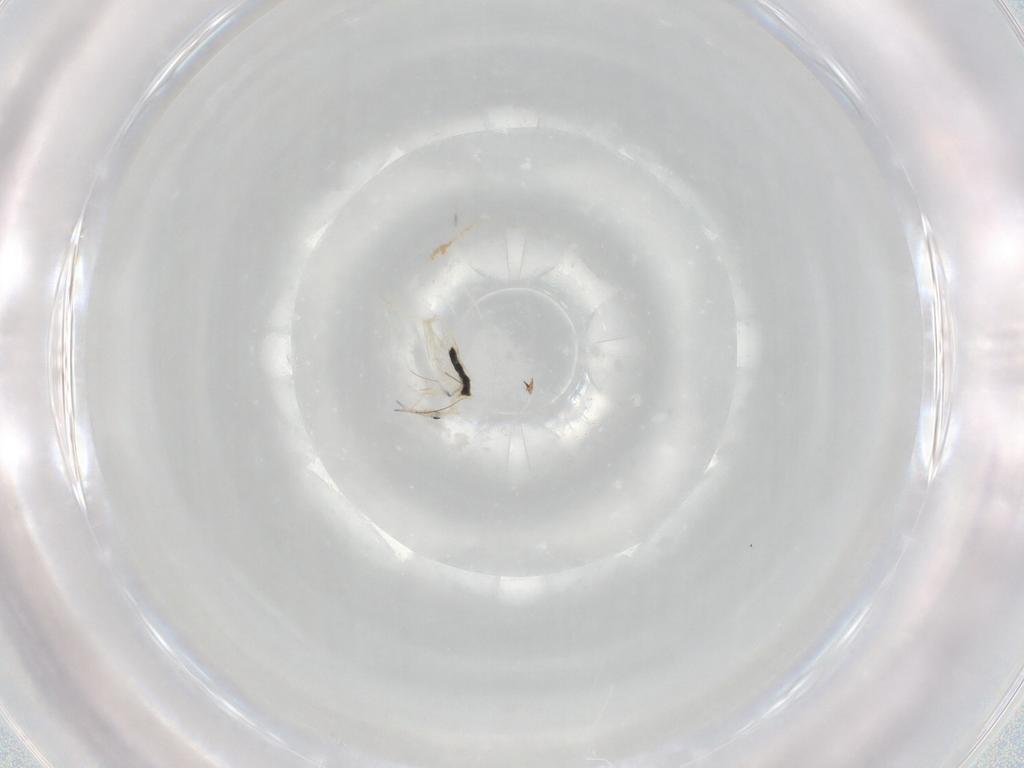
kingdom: Animalia
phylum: Arthropoda
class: Collembola
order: Entomobryomorpha
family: Entomobryidae
